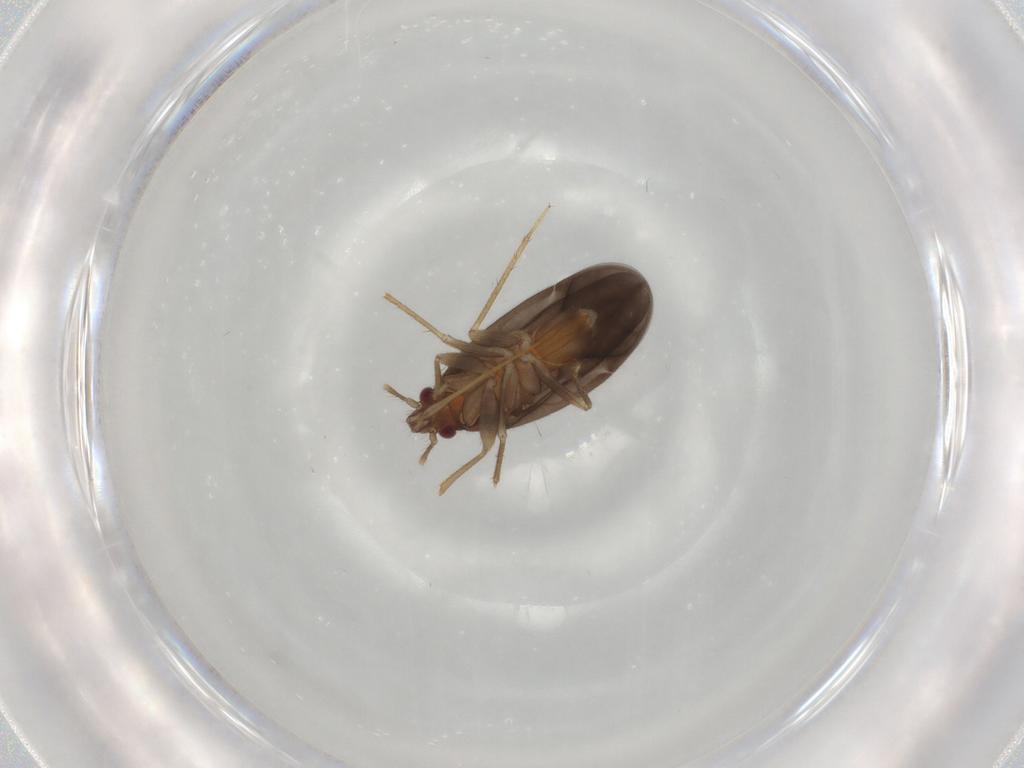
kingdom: Animalia
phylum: Arthropoda
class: Insecta
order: Hemiptera
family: Ceratocombidae
